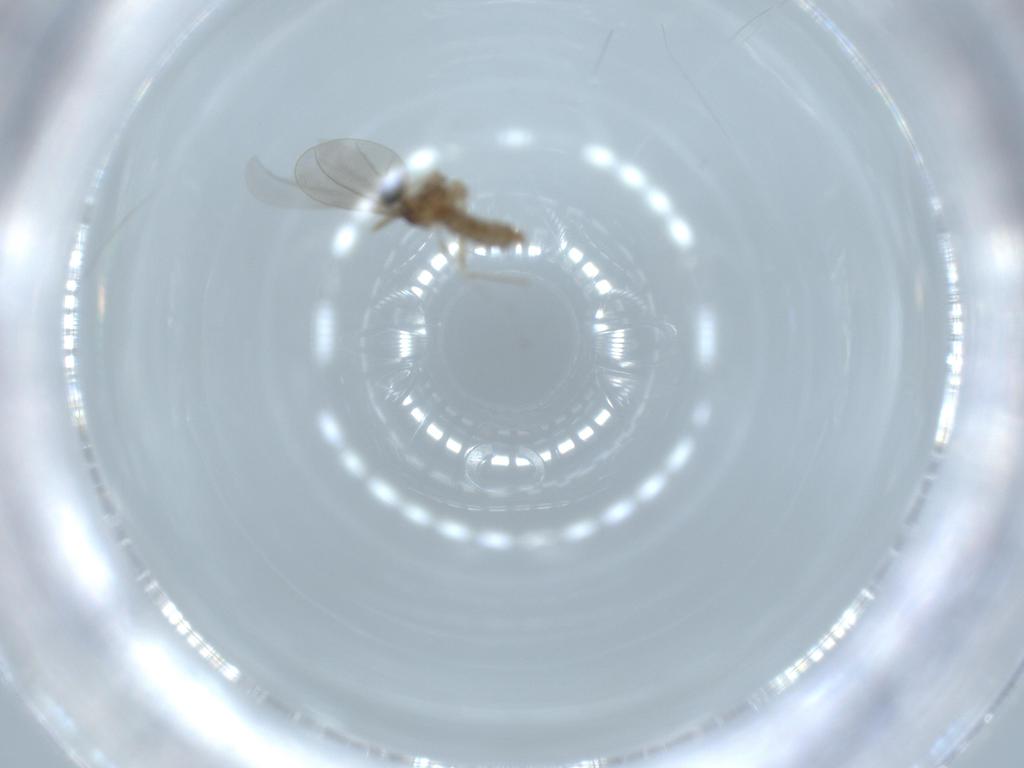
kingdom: Animalia
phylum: Arthropoda
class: Insecta
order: Diptera
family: Cecidomyiidae
